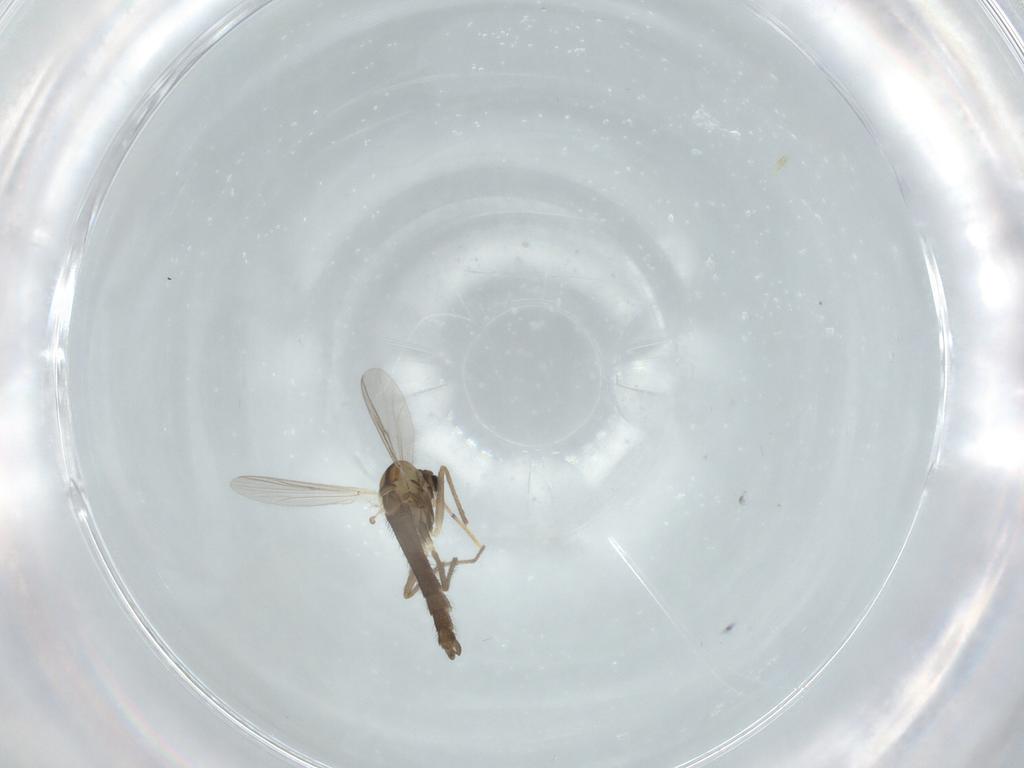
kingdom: Animalia
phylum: Arthropoda
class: Insecta
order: Diptera
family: Chironomidae
